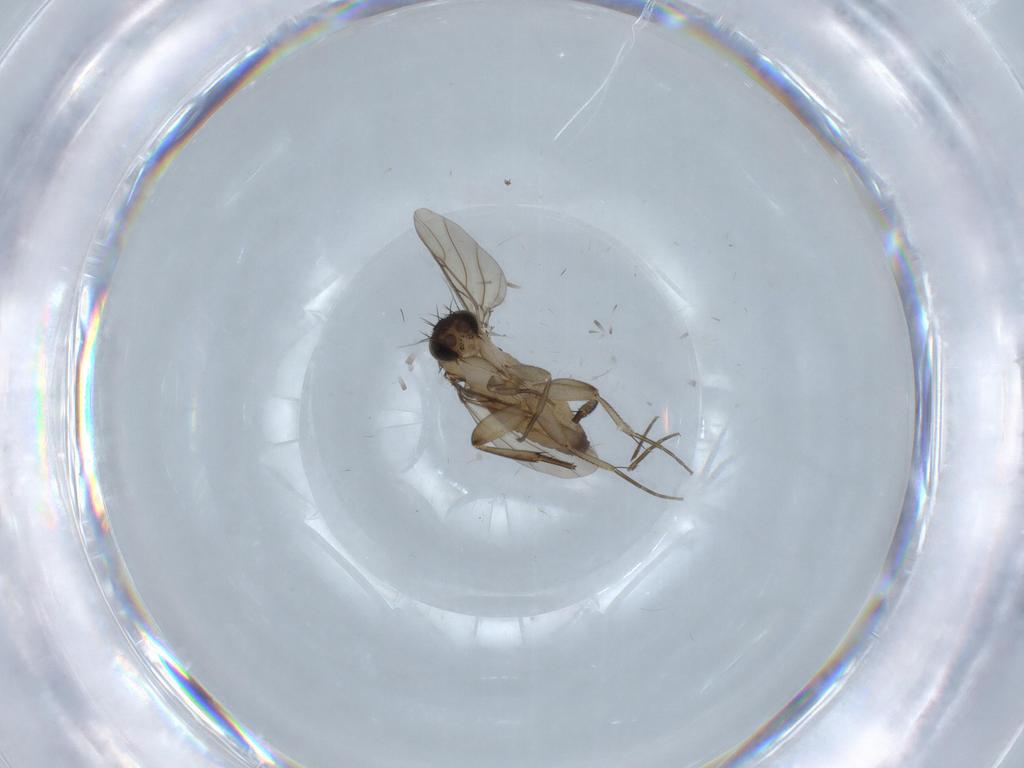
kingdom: Animalia
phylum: Arthropoda
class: Insecta
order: Diptera
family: Phoridae
